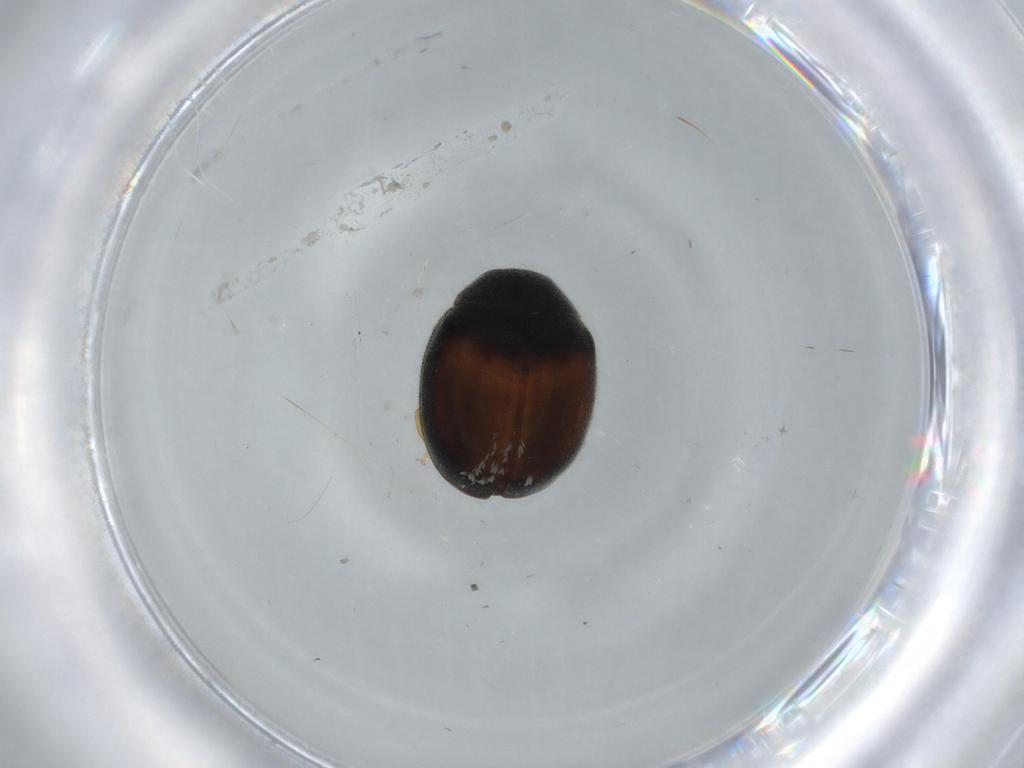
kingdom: Animalia
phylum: Arthropoda
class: Insecta
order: Coleoptera
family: Coccinellidae
